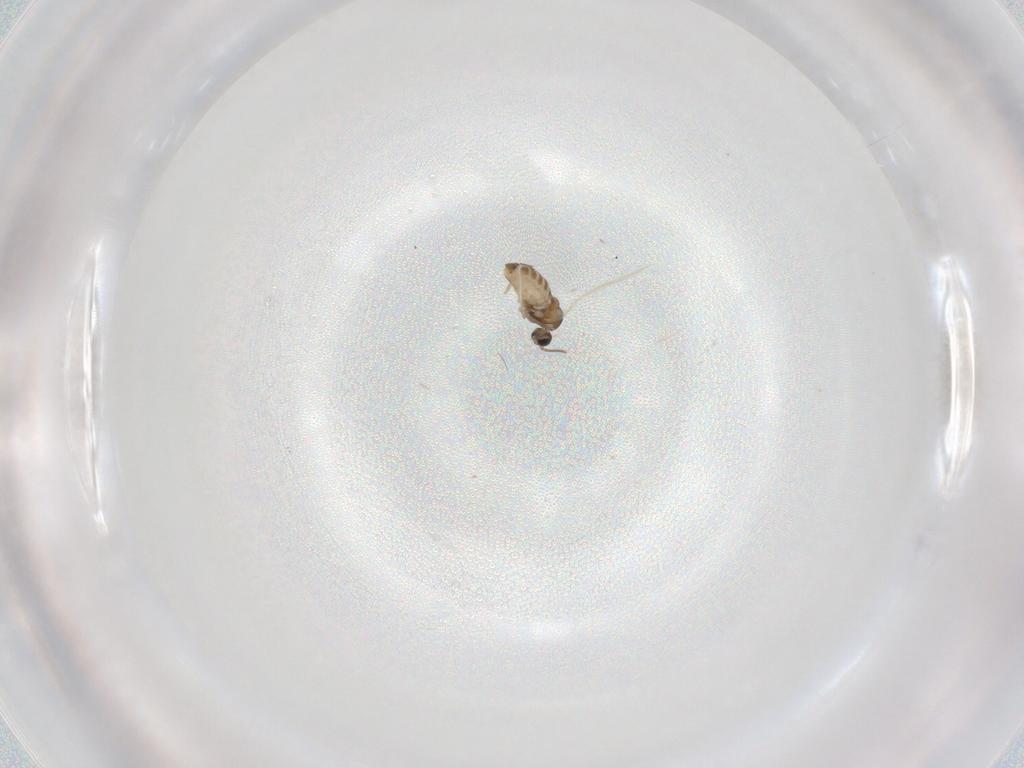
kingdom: Animalia
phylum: Arthropoda
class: Insecta
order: Diptera
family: Cecidomyiidae
